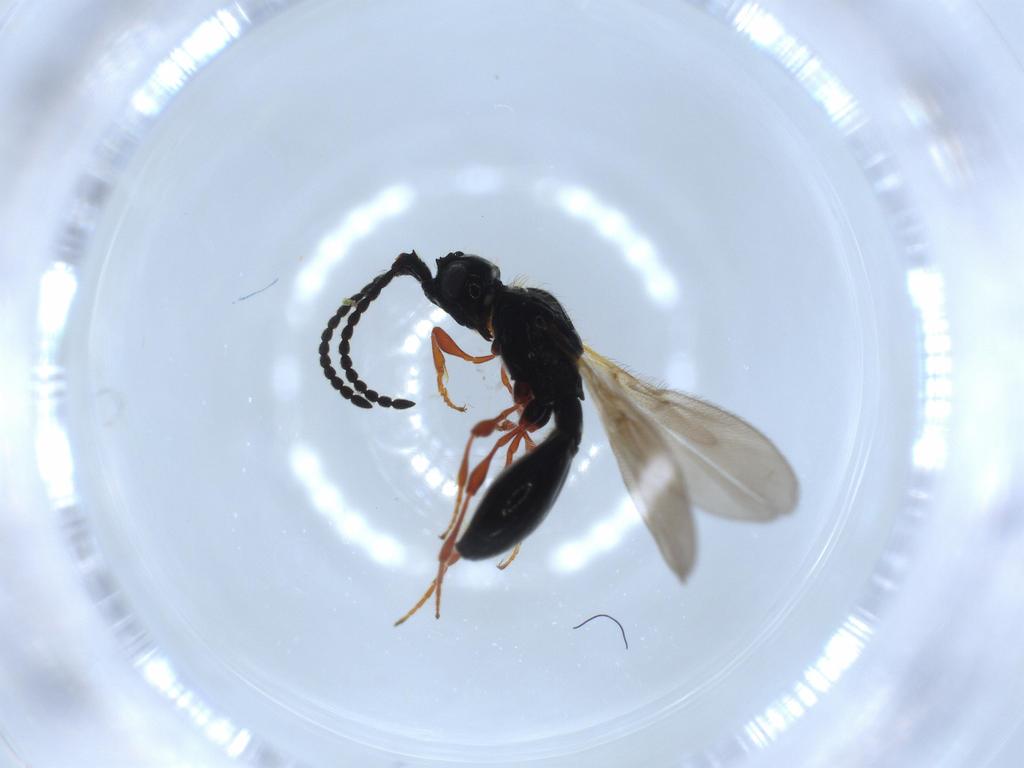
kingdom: Animalia
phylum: Arthropoda
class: Insecta
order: Hymenoptera
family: Diapriidae
